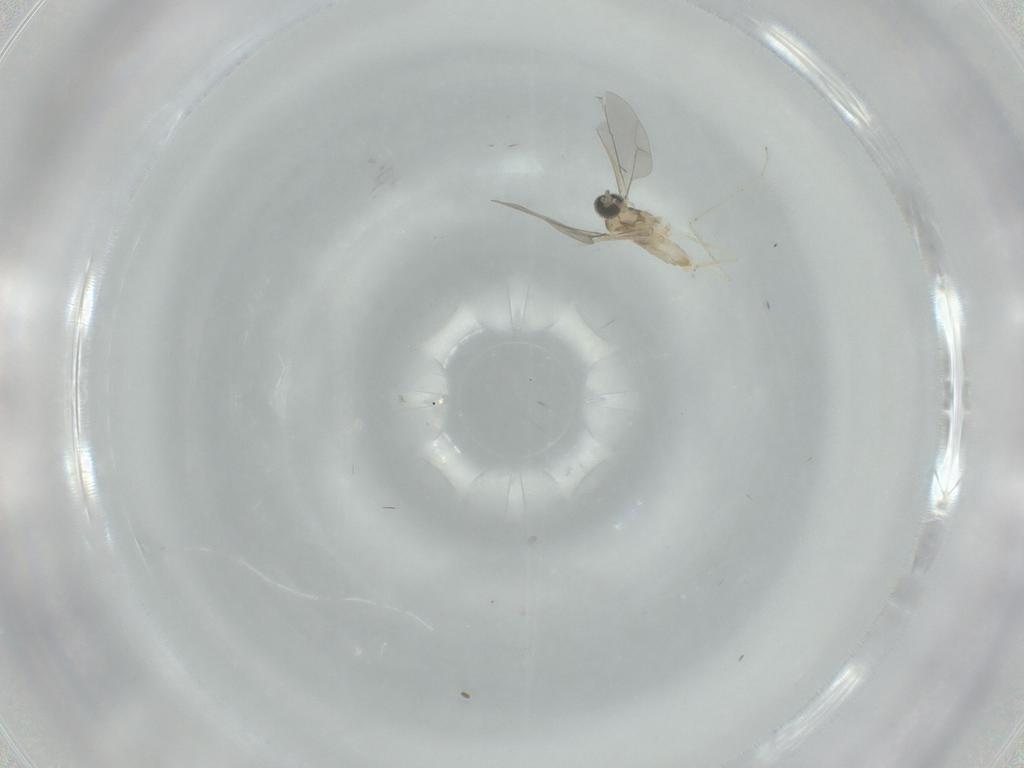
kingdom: Animalia
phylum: Arthropoda
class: Insecta
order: Diptera
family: Cecidomyiidae
